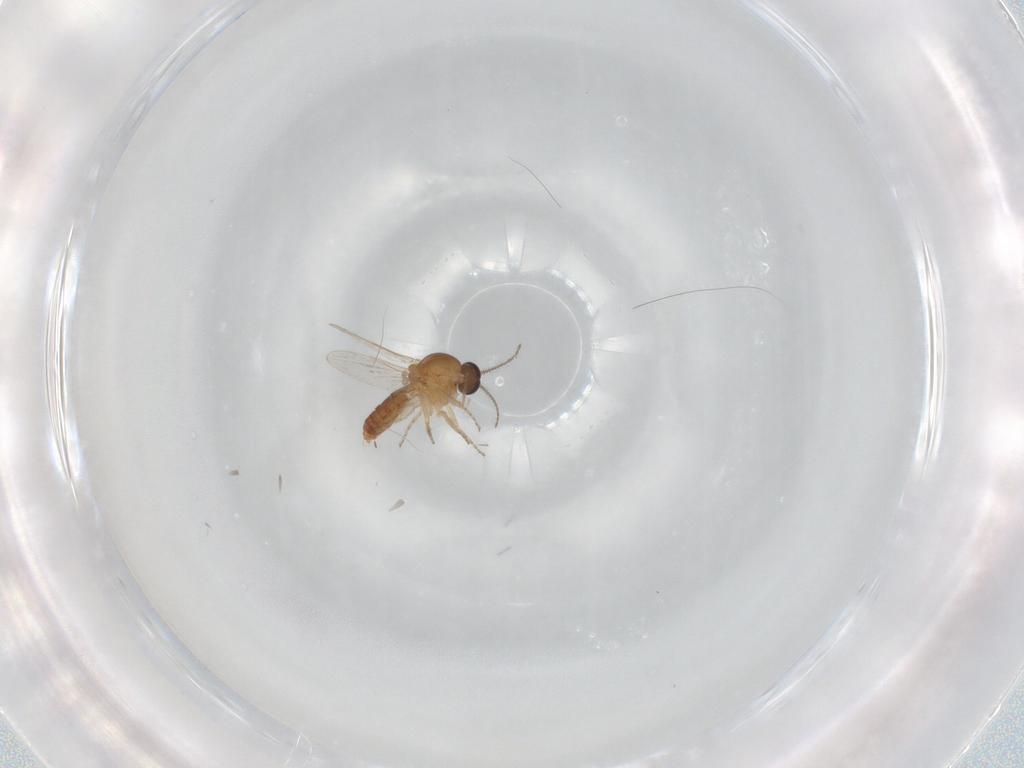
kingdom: Animalia
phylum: Arthropoda
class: Insecta
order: Diptera
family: Ceratopogonidae
